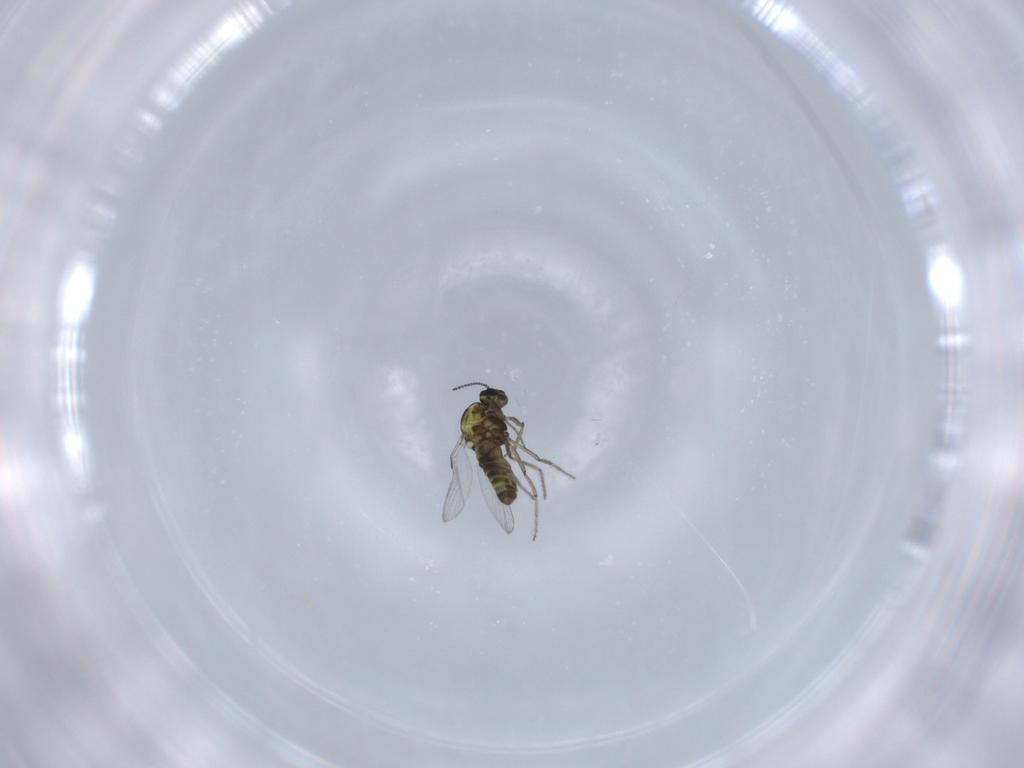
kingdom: Animalia
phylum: Arthropoda
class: Insecta
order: Diptera
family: Ceratopogonidae
